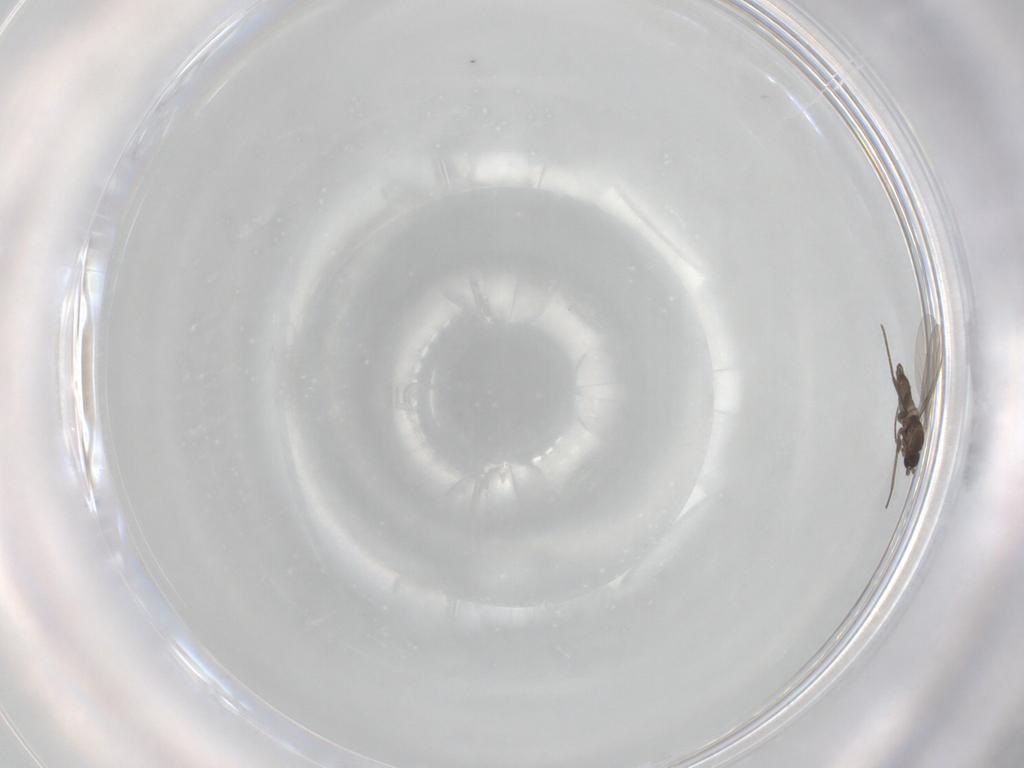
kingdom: Animalia
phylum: Arthropoda
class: Insecta
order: Diptera
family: Sciaridae
